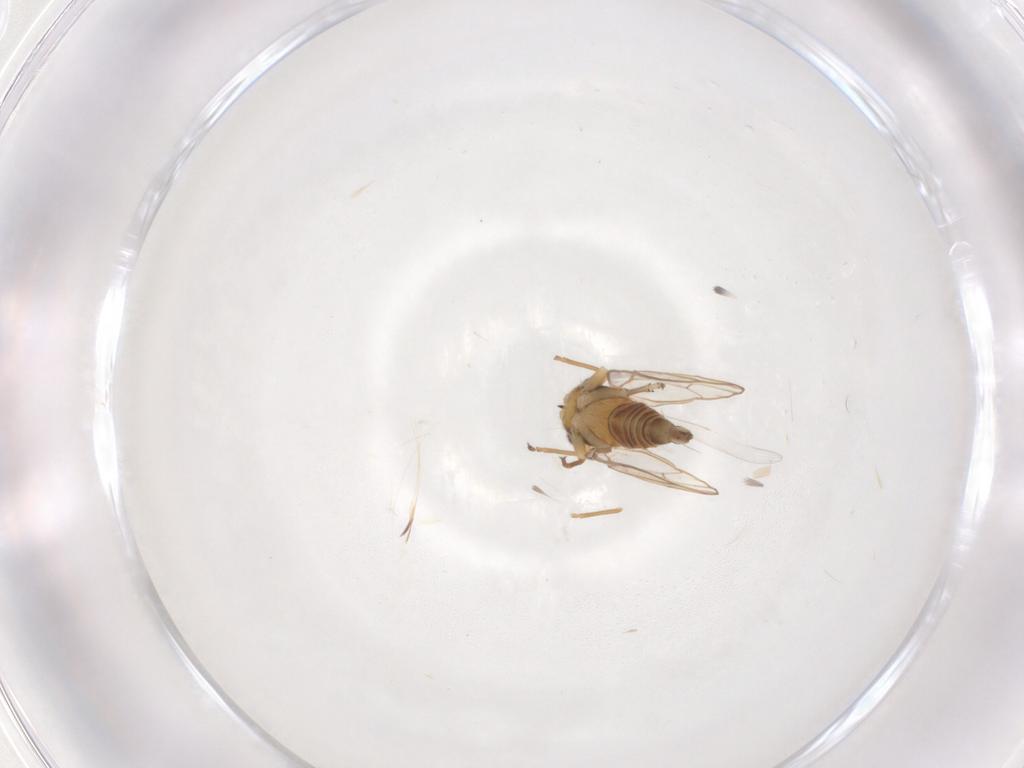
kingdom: Animalia
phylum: Arthropoda
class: Insecta
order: Hemiptera
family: Psyllidae
